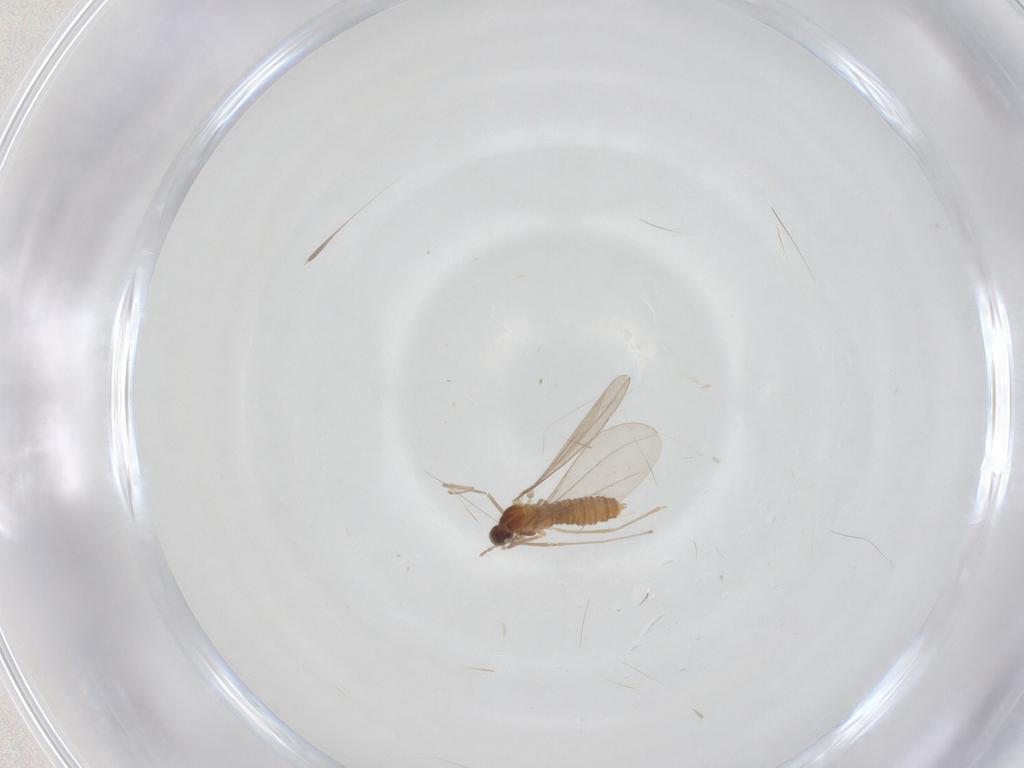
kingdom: Animalia
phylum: Arthropoda
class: Insecta
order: Diptera
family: Cecidomyiidae
